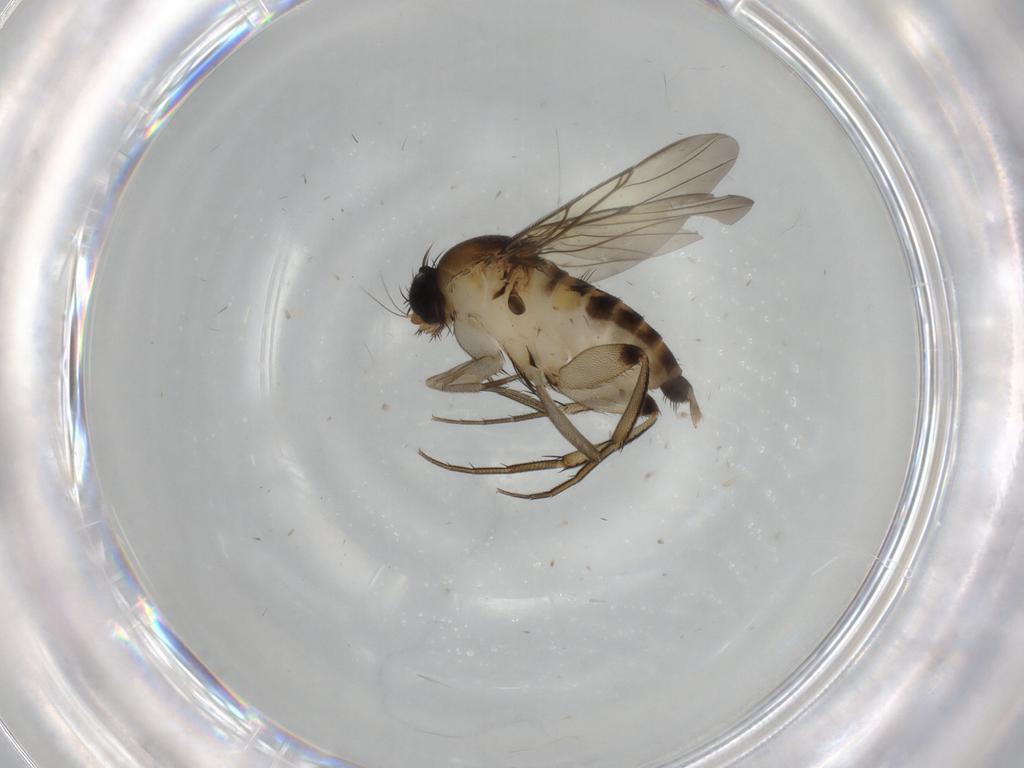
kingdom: Animalia
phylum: Arthropoda
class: Insecta
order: Diptera
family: Phoridae
